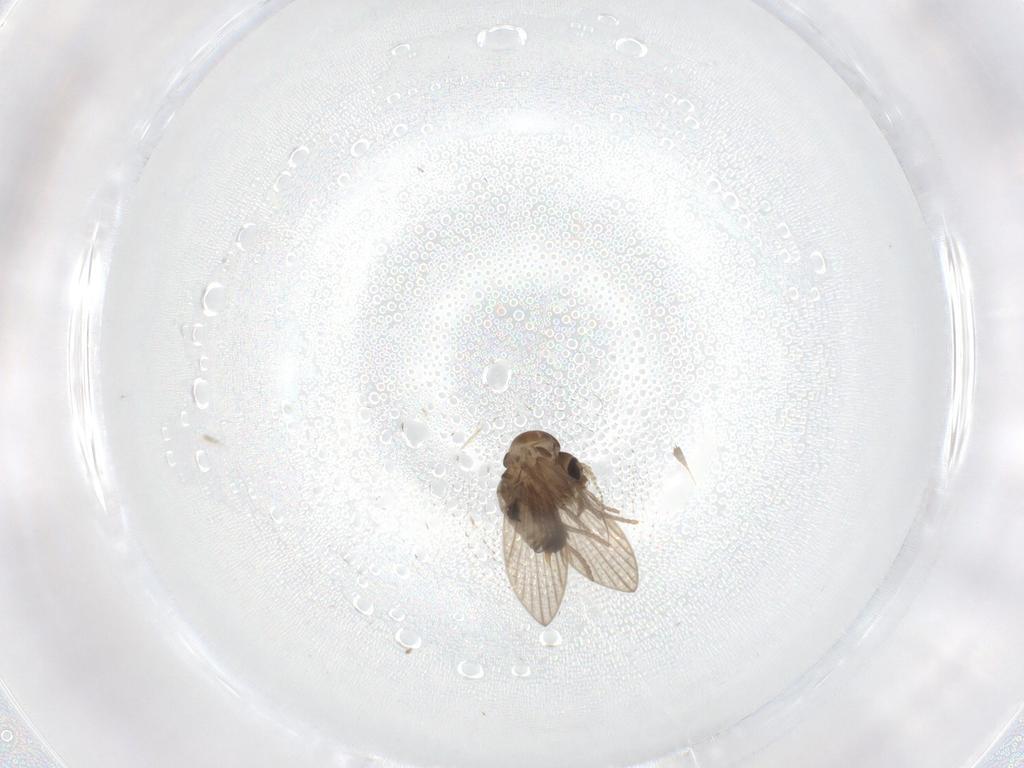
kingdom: Animalia
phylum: Arthropoda
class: Insecta
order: Diptera
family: Psychodidae
